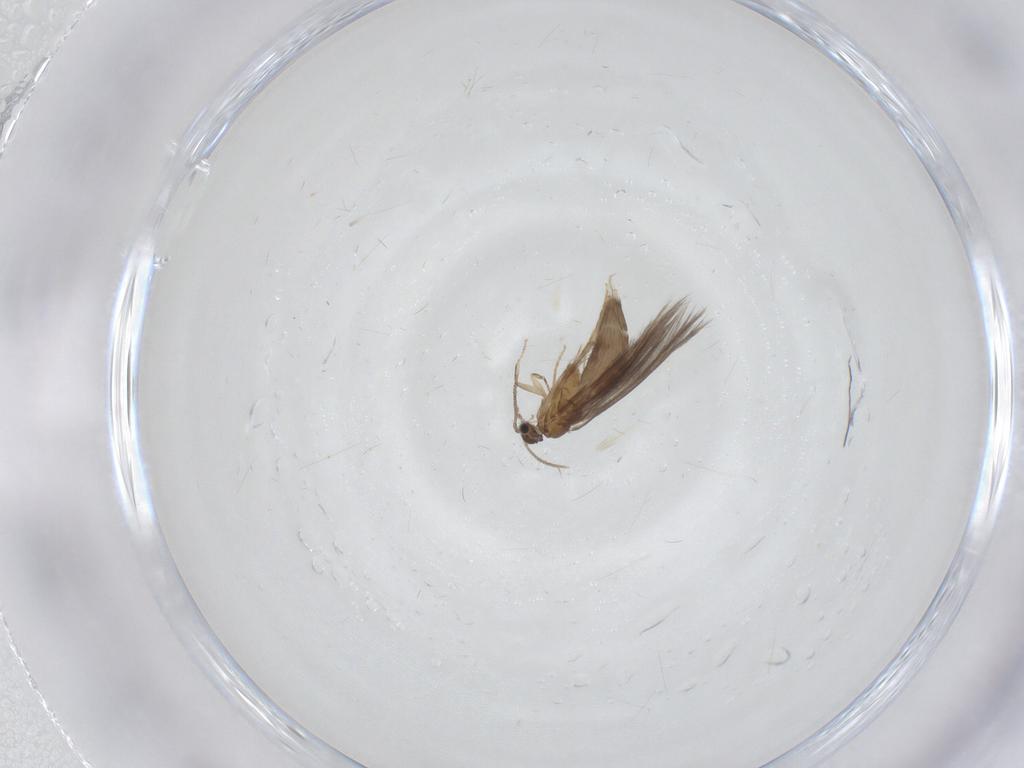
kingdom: Animalia
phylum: Arthropoda
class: Insecta
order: Trichoptera
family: Hydroptilidae
